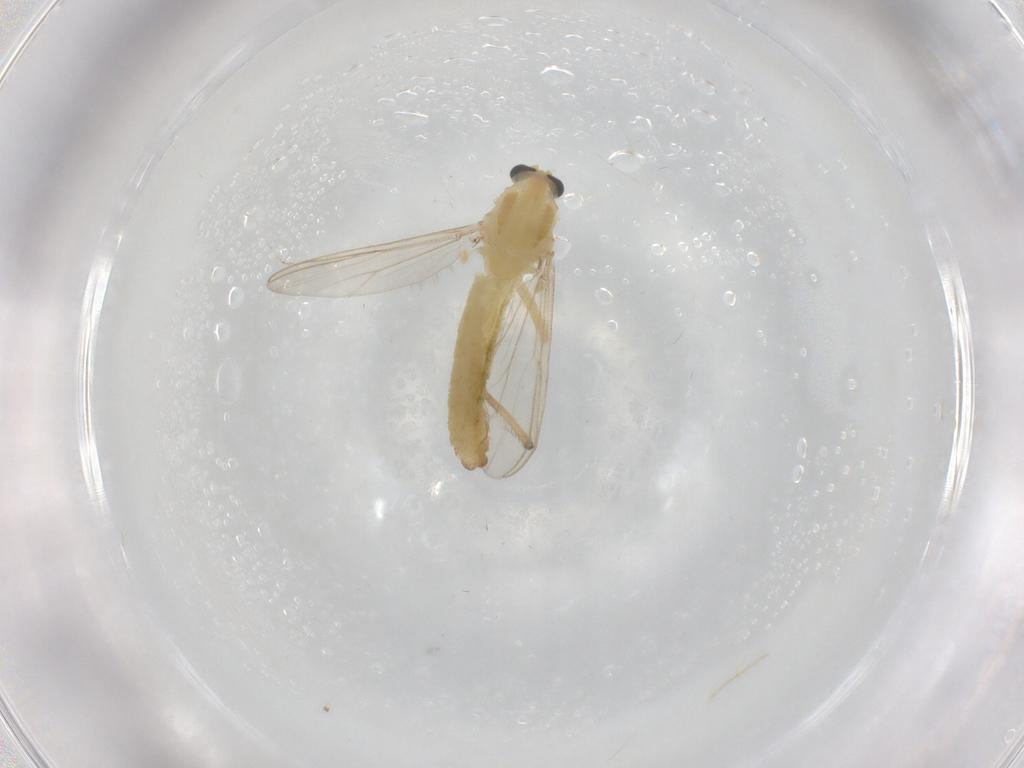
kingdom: Animalia
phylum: Arthropoda
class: Insecta
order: Diptera
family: Chironomidae
